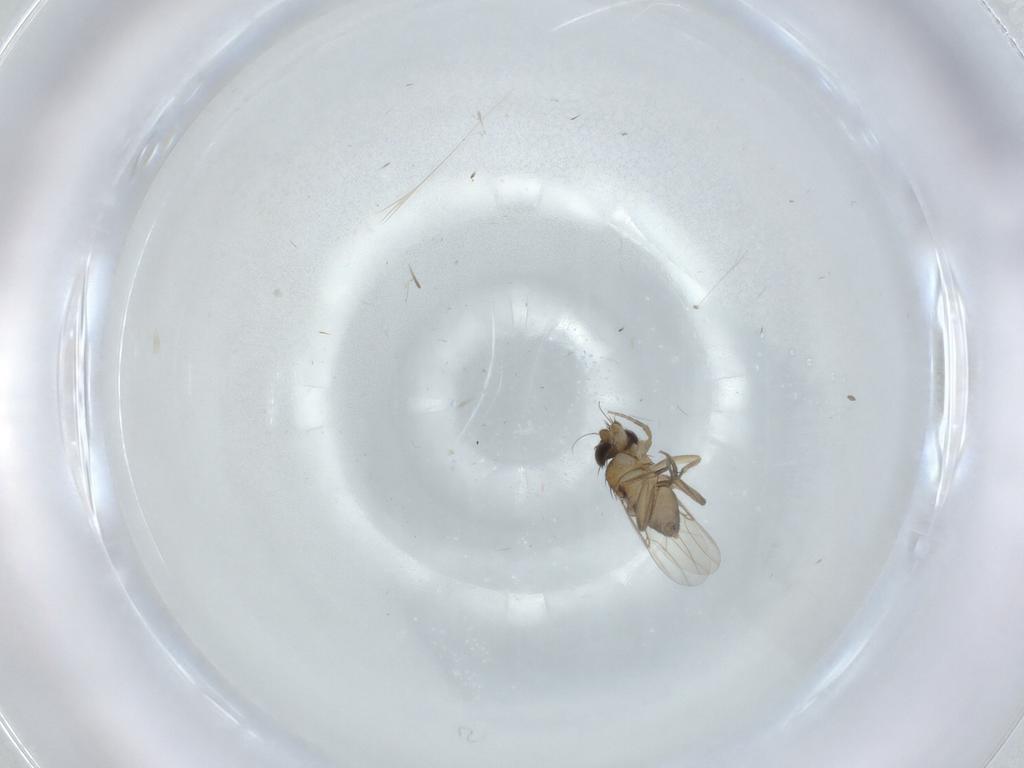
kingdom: Animalia
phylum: Arthropoda
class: Insecta
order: Diptera
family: Phoridae
